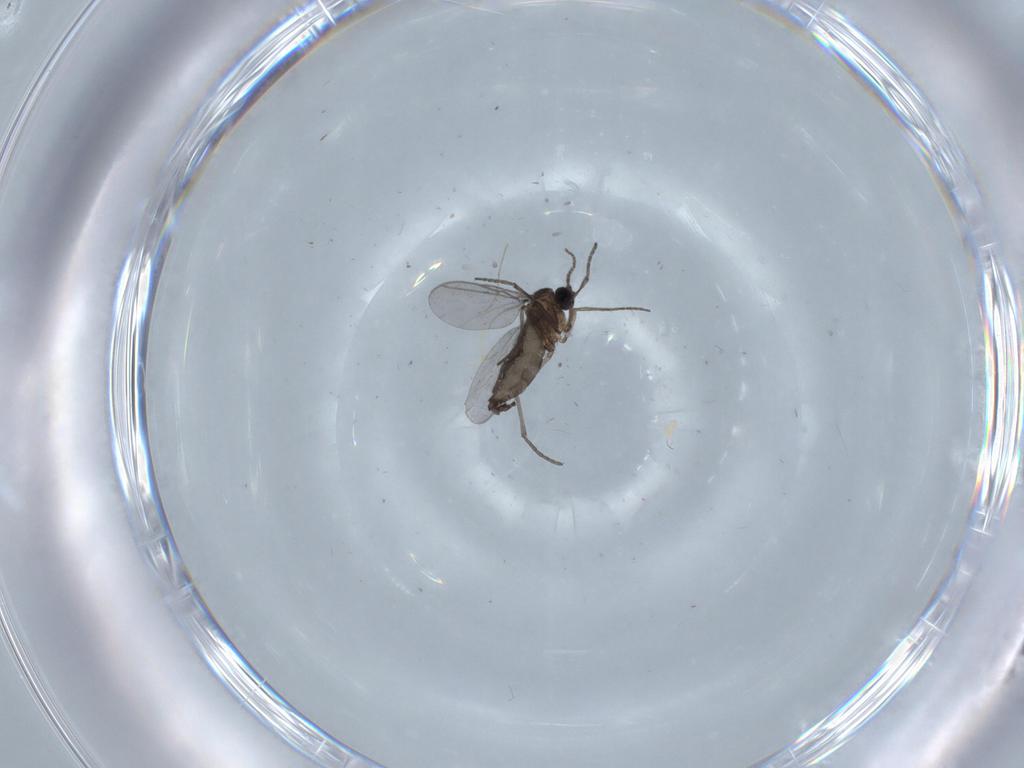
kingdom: Animalia
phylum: Arthropoda
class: Insecta
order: Diptera
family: Chironomidae
